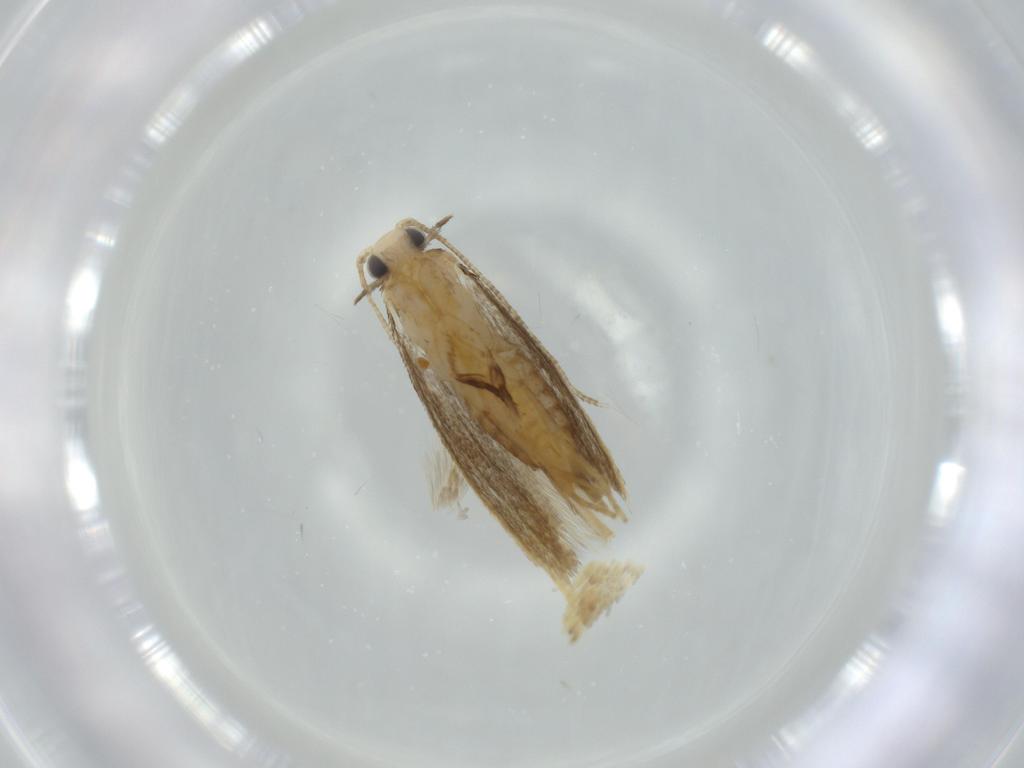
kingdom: Animalia
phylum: Arthropoda
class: Insecta
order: Lepidoptera
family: Tineidae
